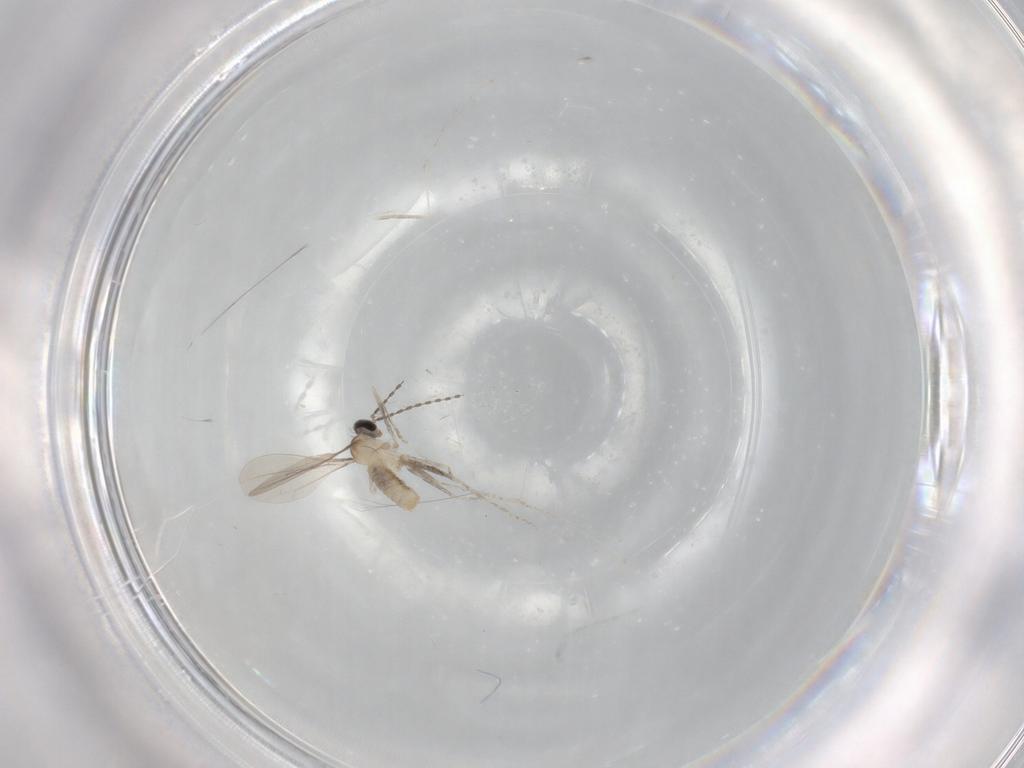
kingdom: Animalia
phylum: Arthropoda
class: Insecta
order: Diptera
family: Cecidomyiidae
